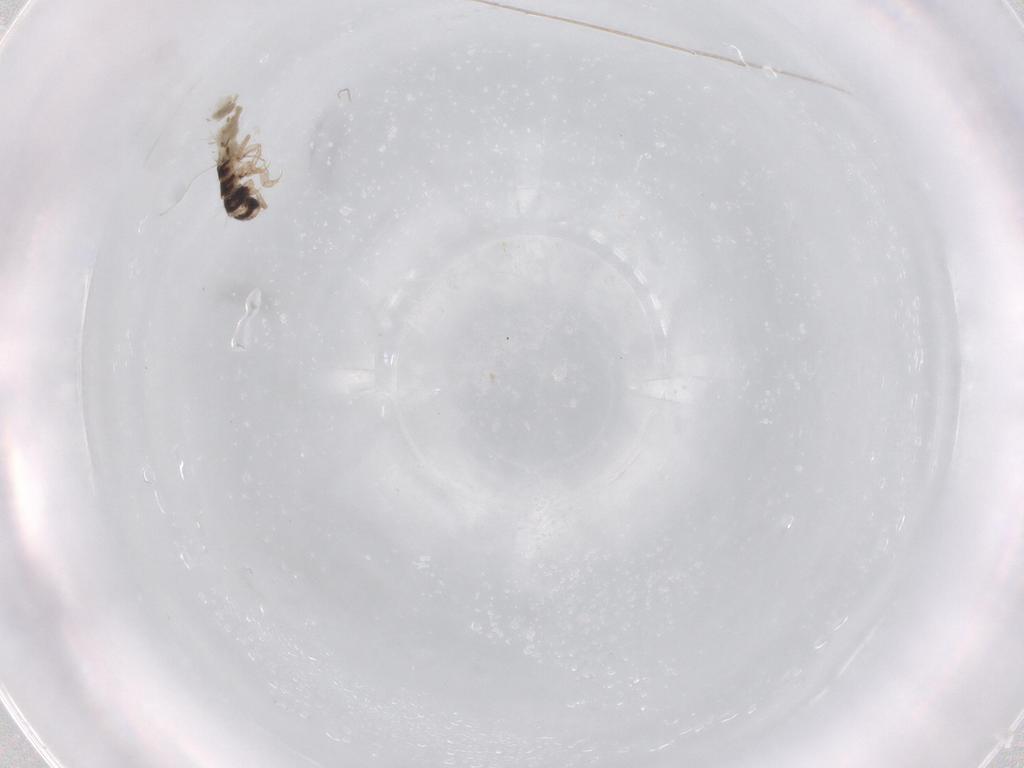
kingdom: Animalia
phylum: Arthropoda
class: Insecta
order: Trichoptera
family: Hydroptilidae
